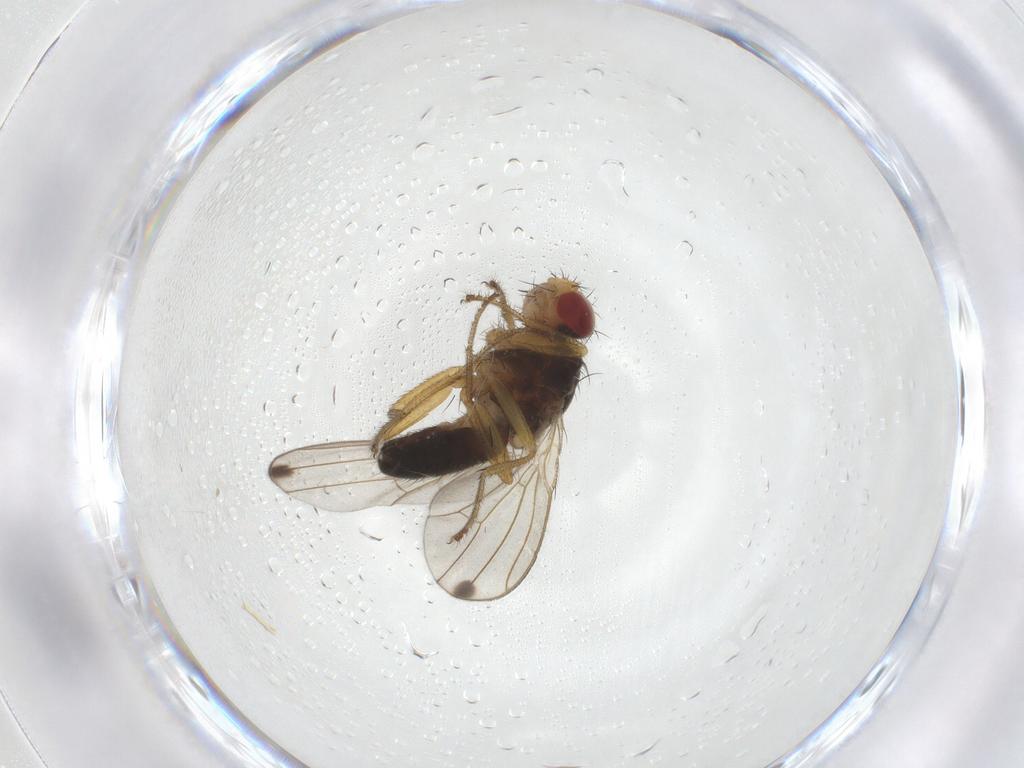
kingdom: Animalia
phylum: Arthropoda
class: Insecta
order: Diptera
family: Drosophilidae
